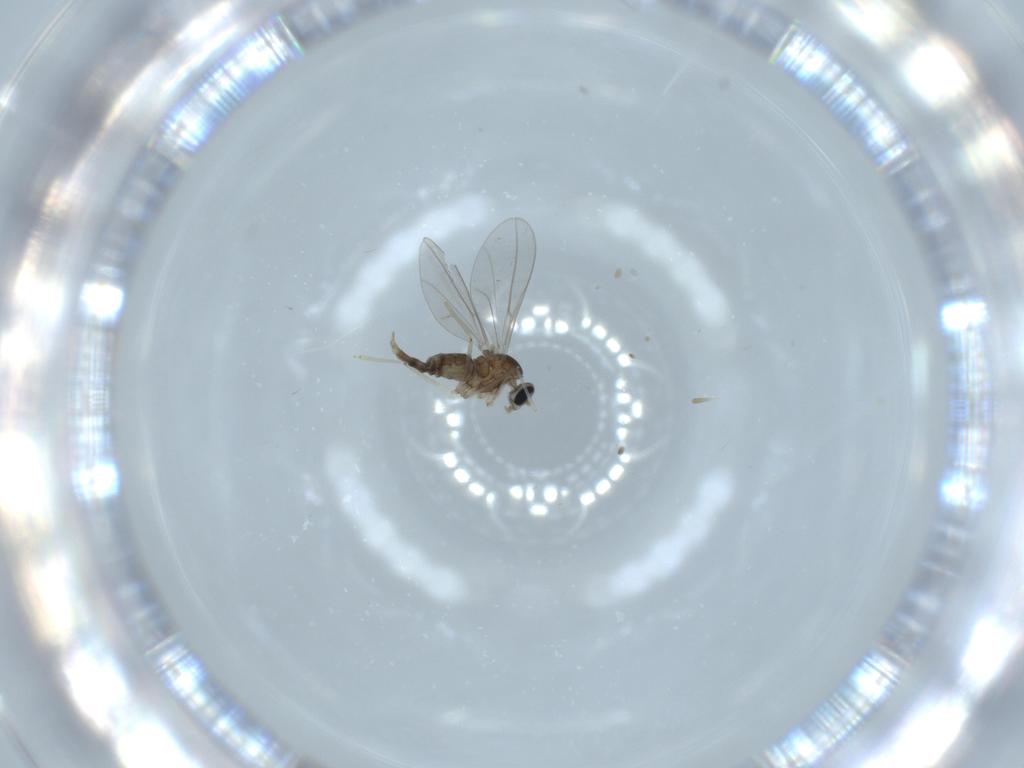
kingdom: Animalia
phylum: Arthropoda
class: Insecta
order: Diptera
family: Cecidomyiidae
